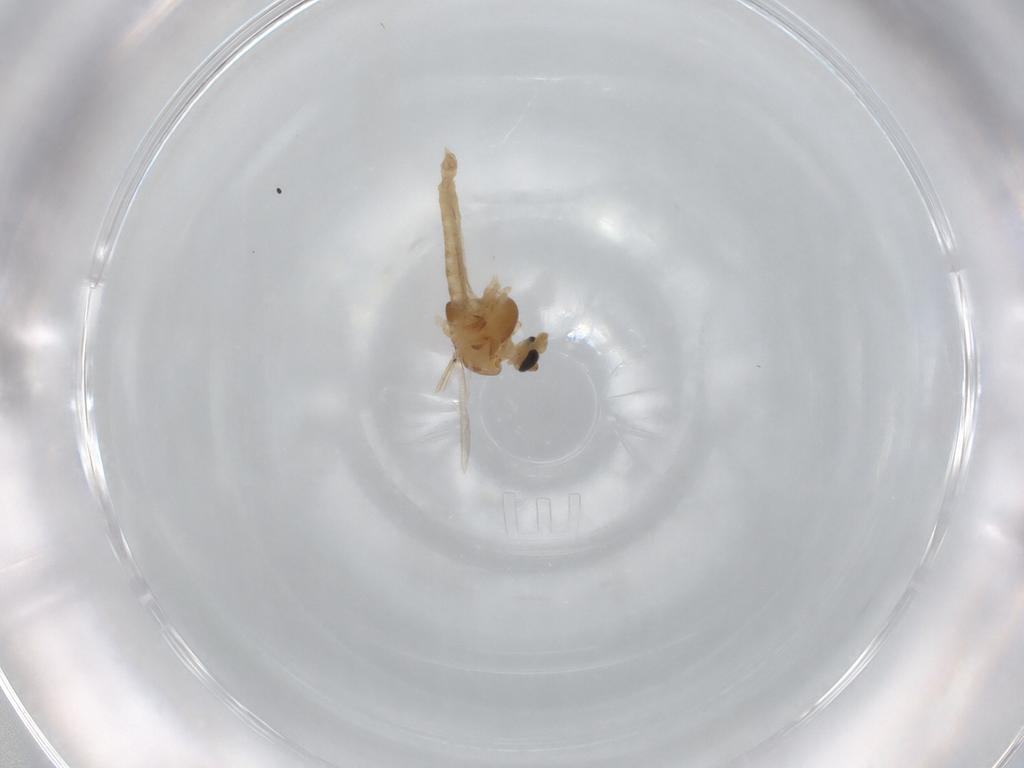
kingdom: Animalia
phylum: Arthropoda
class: Insecta
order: Diptera
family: Chironomidae
